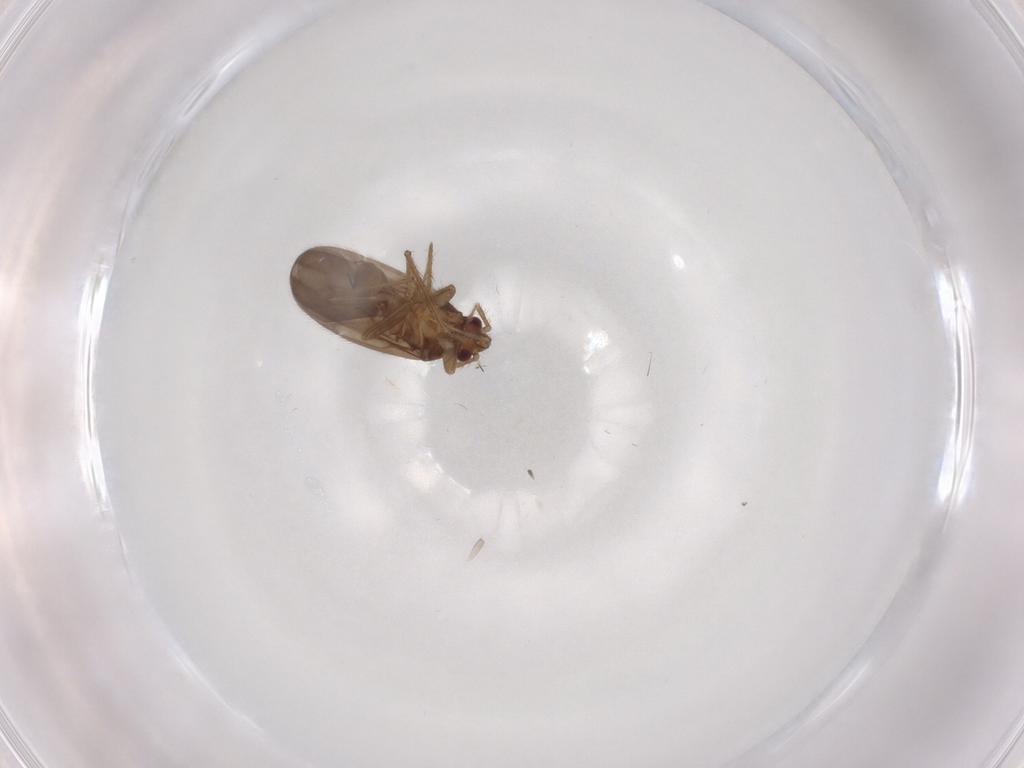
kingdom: Animalia
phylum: Arthropoda
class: Insecta
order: Hemiptera
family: Ceratocombidae
